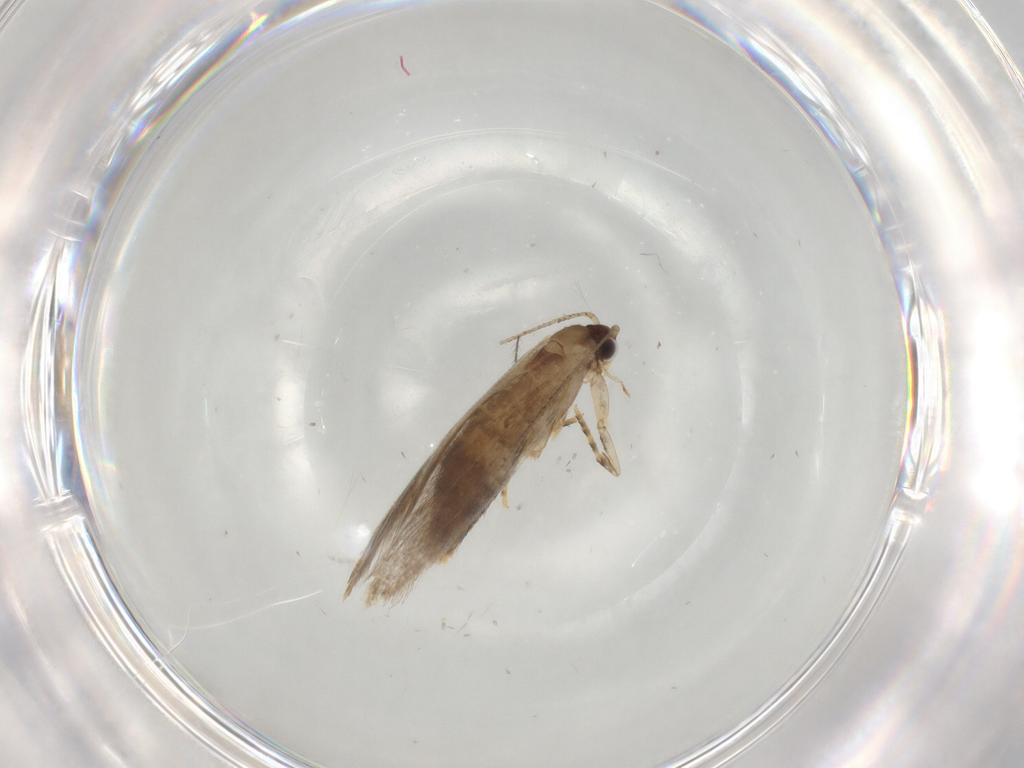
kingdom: Animalia
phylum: Arthropoda
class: Insecta
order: Lepidoptera
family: Tineidae
